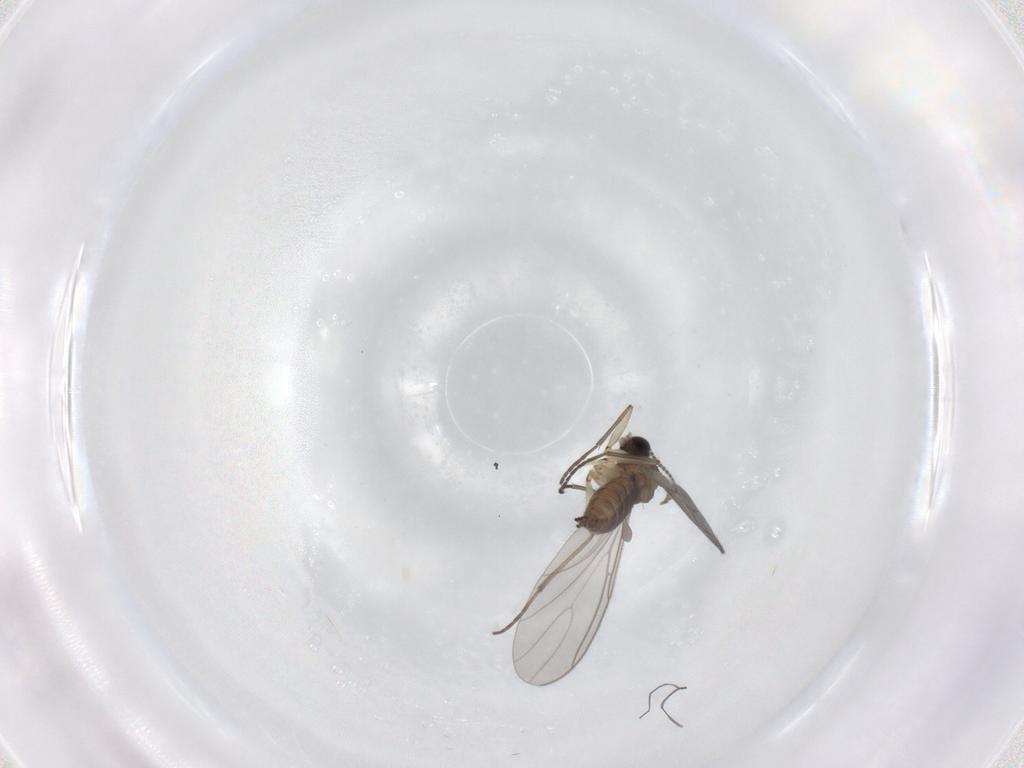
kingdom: Animalia
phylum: Arthropoda
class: Insecta
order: Diptera
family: Sciaridae
